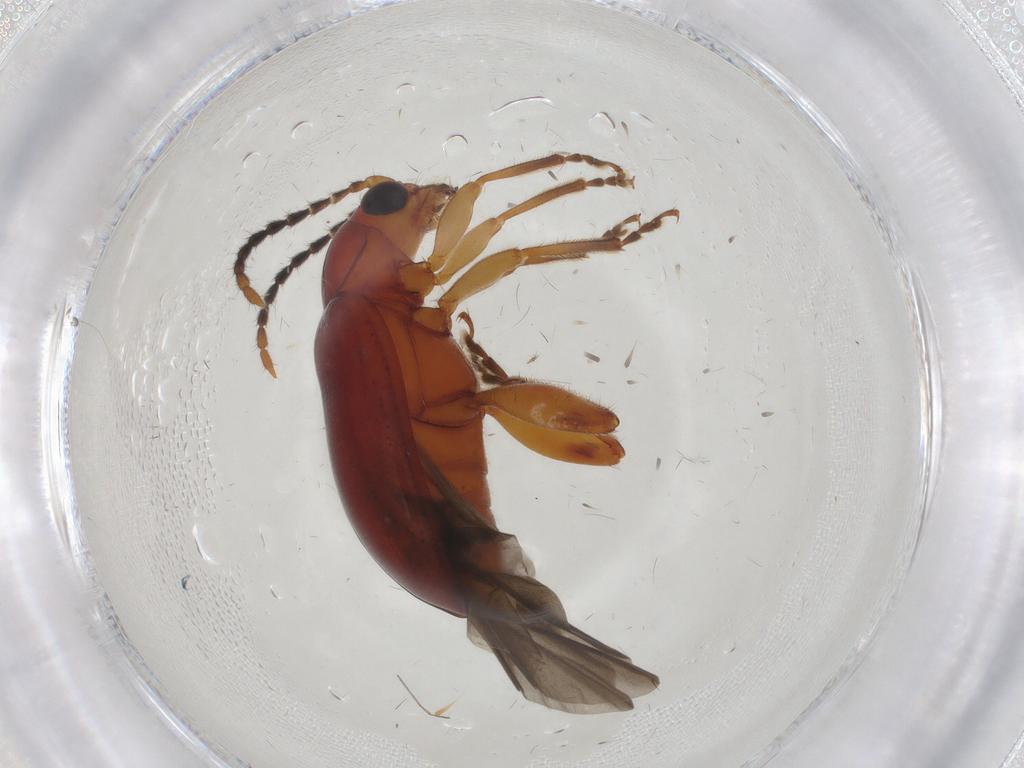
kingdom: Animalia
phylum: Arthropoda
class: Insecta
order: Coleoptera
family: Chrysomelidae
